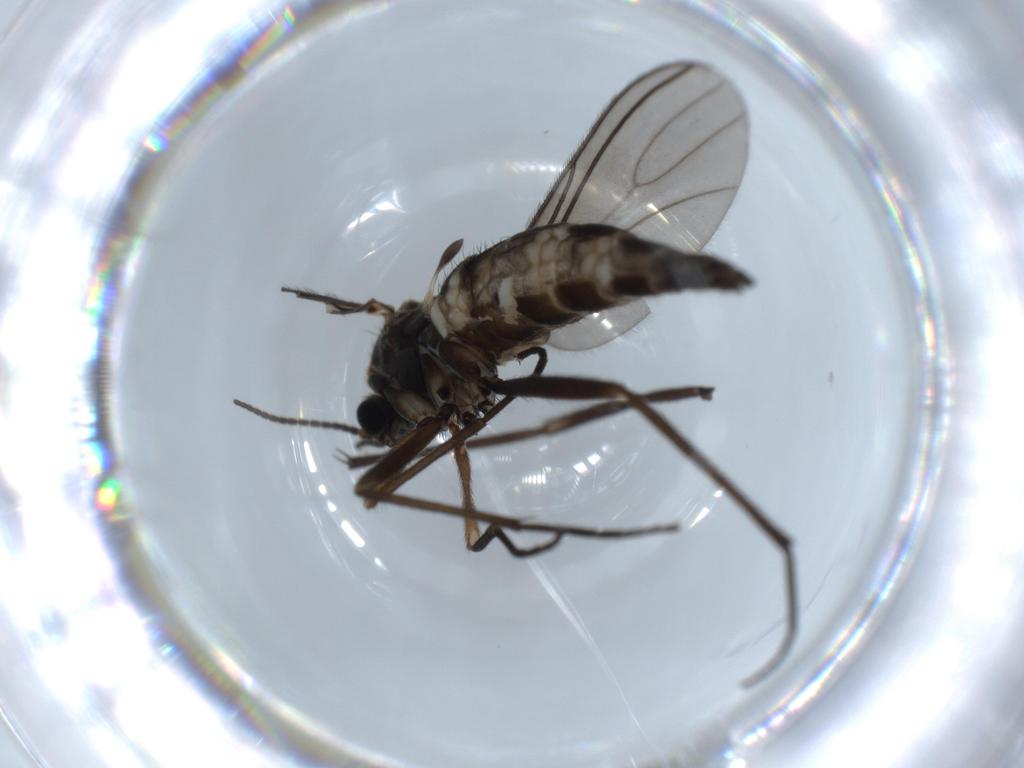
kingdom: Animalia
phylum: Arthropoda
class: Insecta
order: Diptera
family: Sciaridae
